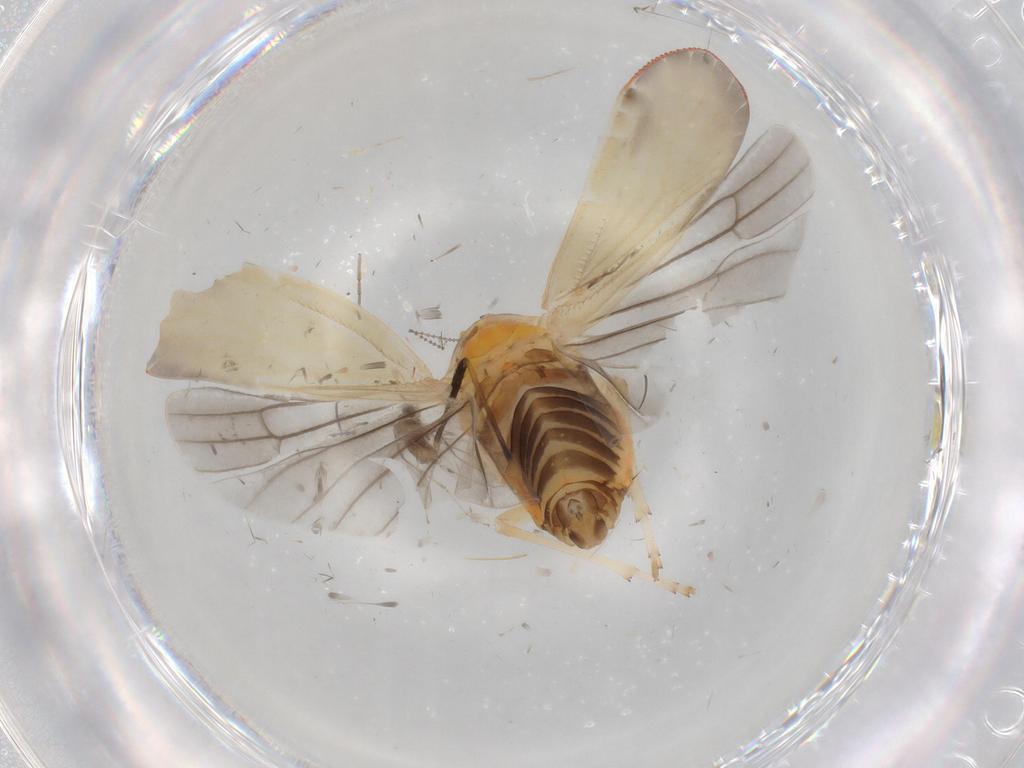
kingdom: Animalia
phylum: Arthropoda
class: Insecta
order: Hemiptera
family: Derbidae
